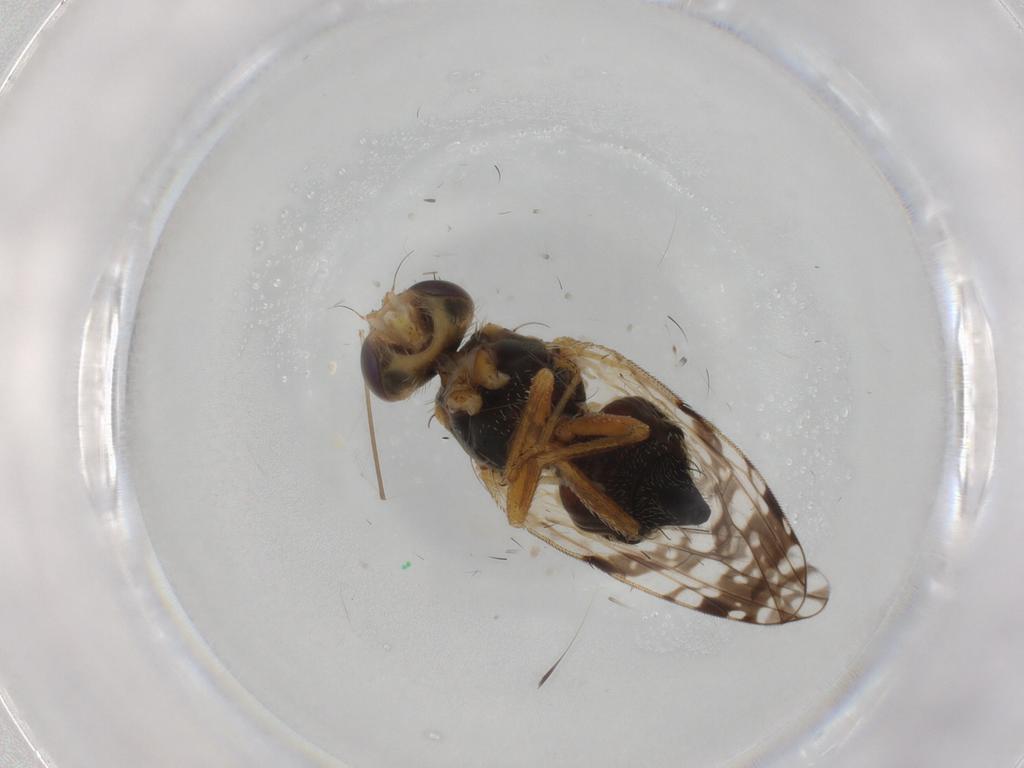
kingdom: Animalia
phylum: Arthropoda
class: Insecta
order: Diptera
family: Tephritidae
